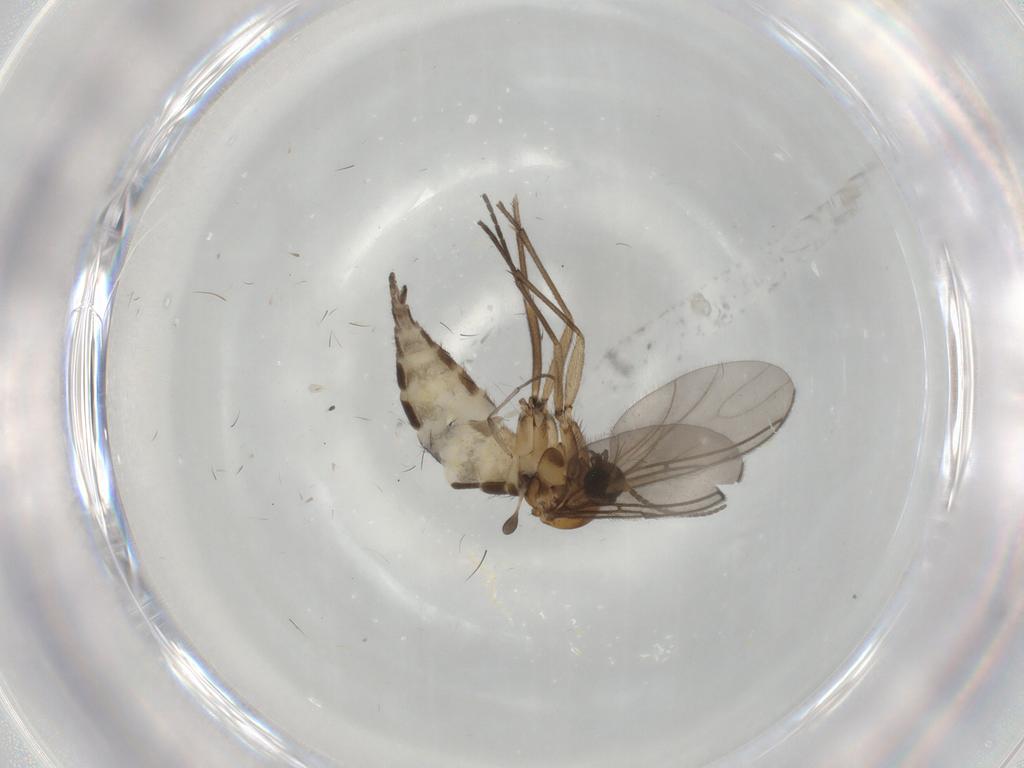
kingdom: Animalia
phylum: Arthropoda
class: Insecta
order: Diptera
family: Sciaridae
